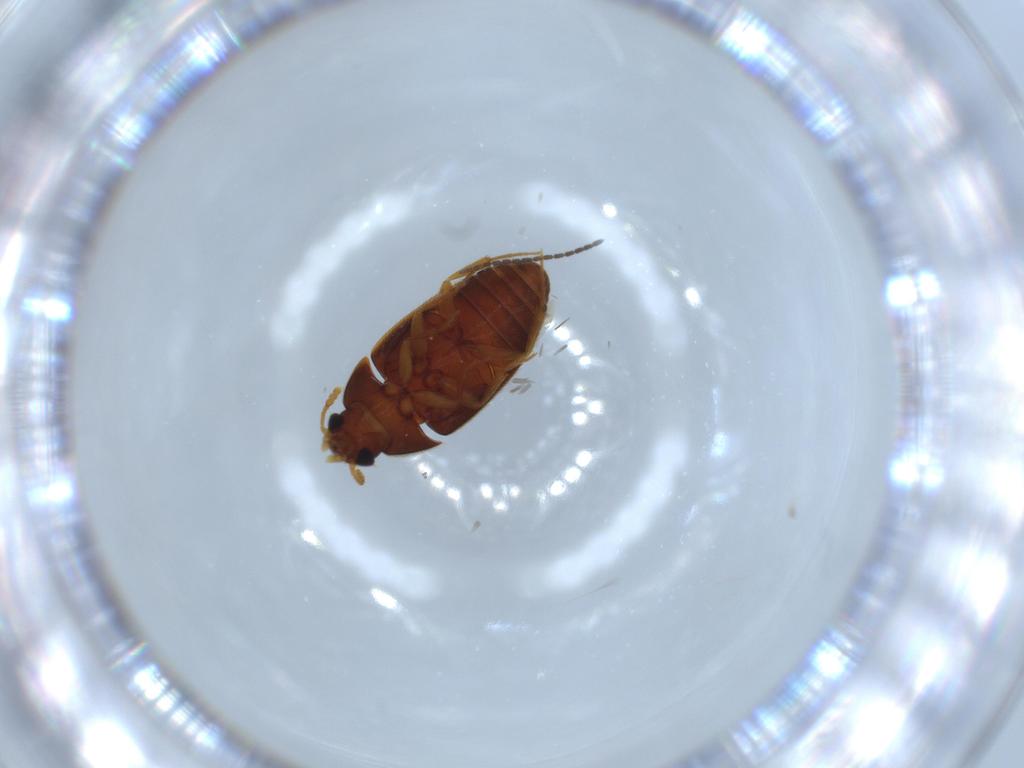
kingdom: Animalia
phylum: Arthropoda
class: Insecta
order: Coleoptera
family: Mycetophagidae
